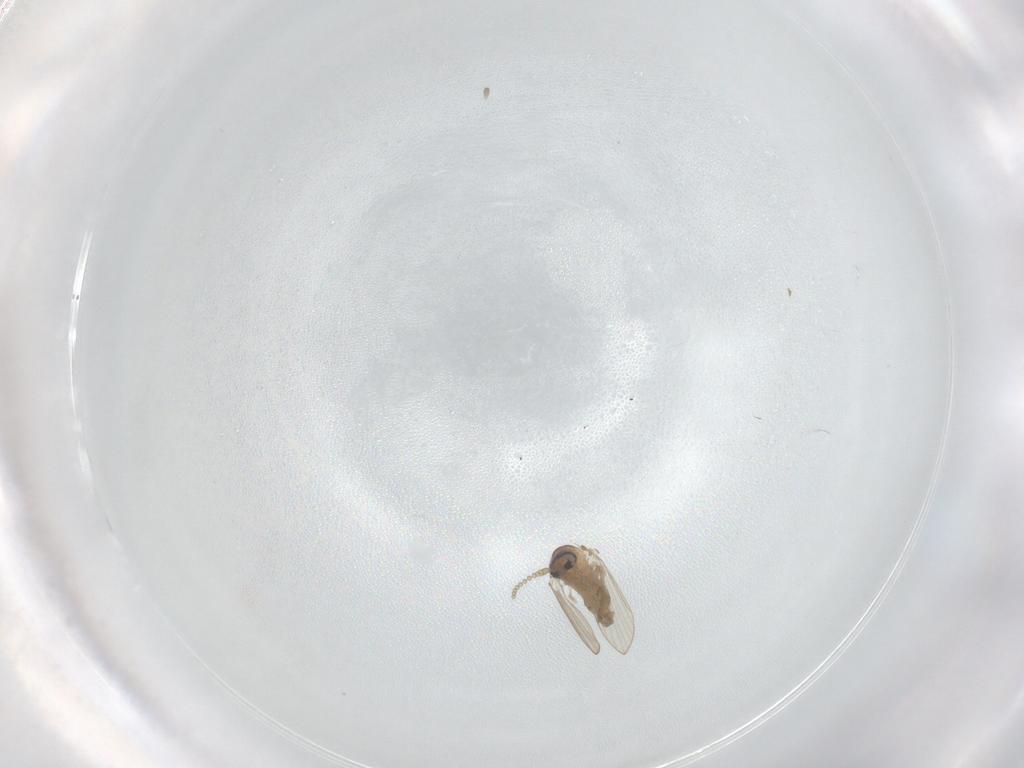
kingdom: Animalia
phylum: Arthropoda
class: Insecta
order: Diptera
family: Psychodidae
